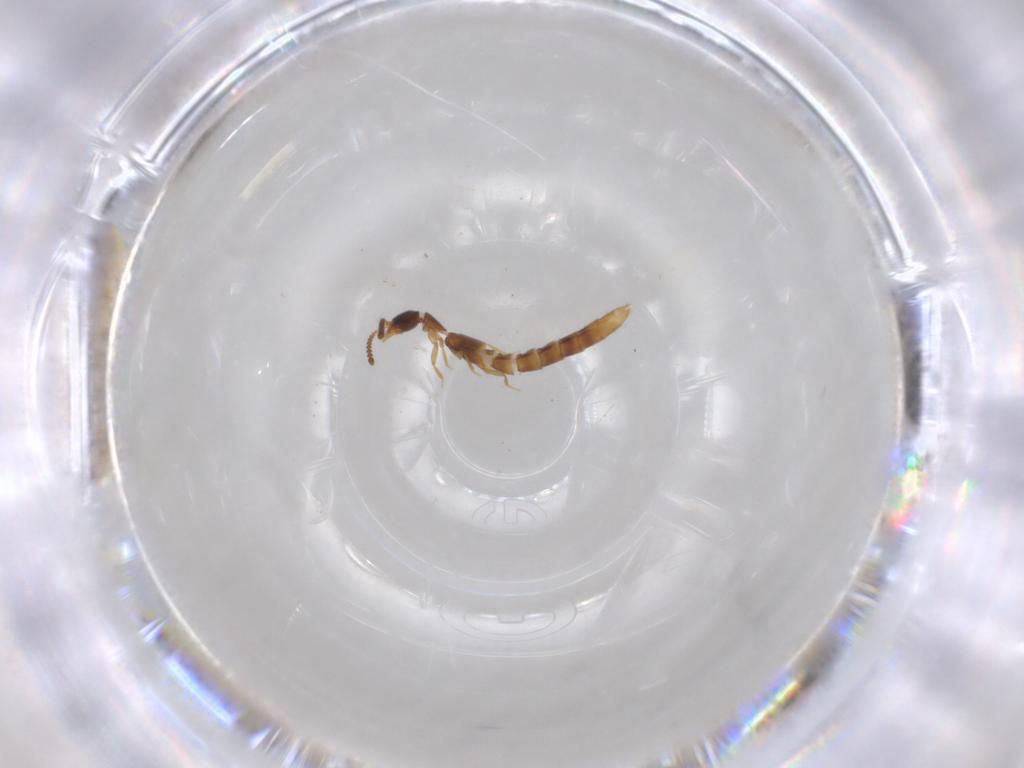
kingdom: Animalia
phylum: Arthropoda
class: Insecta
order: Coleoptera
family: Staphylinidae
